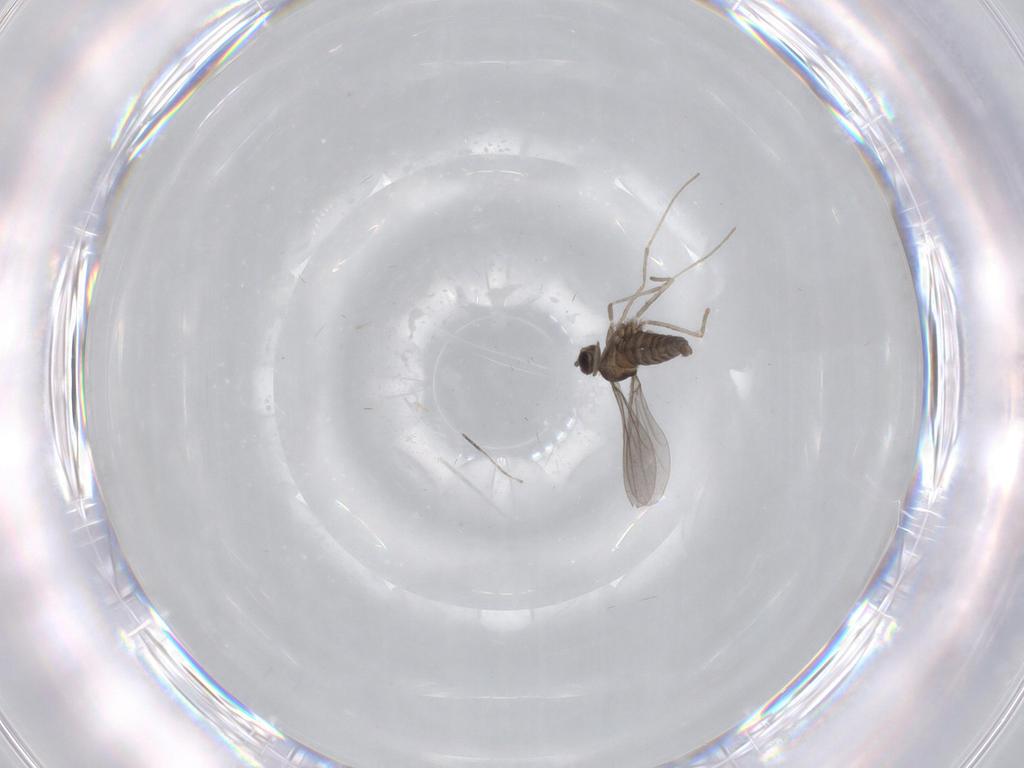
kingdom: Animalia
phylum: Arthropoda
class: Insecta
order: Diptera
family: Cecidomyiidae
